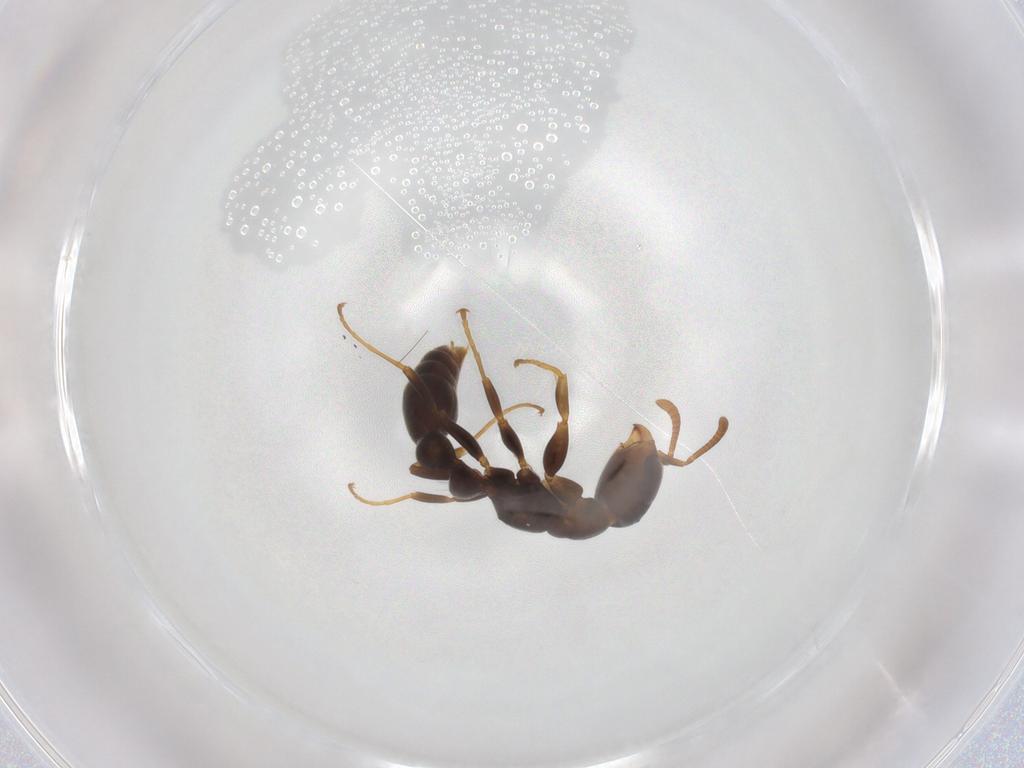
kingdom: Animalia
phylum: Arthropoda
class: Insecta
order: Hymenoptera
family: Formicidae
